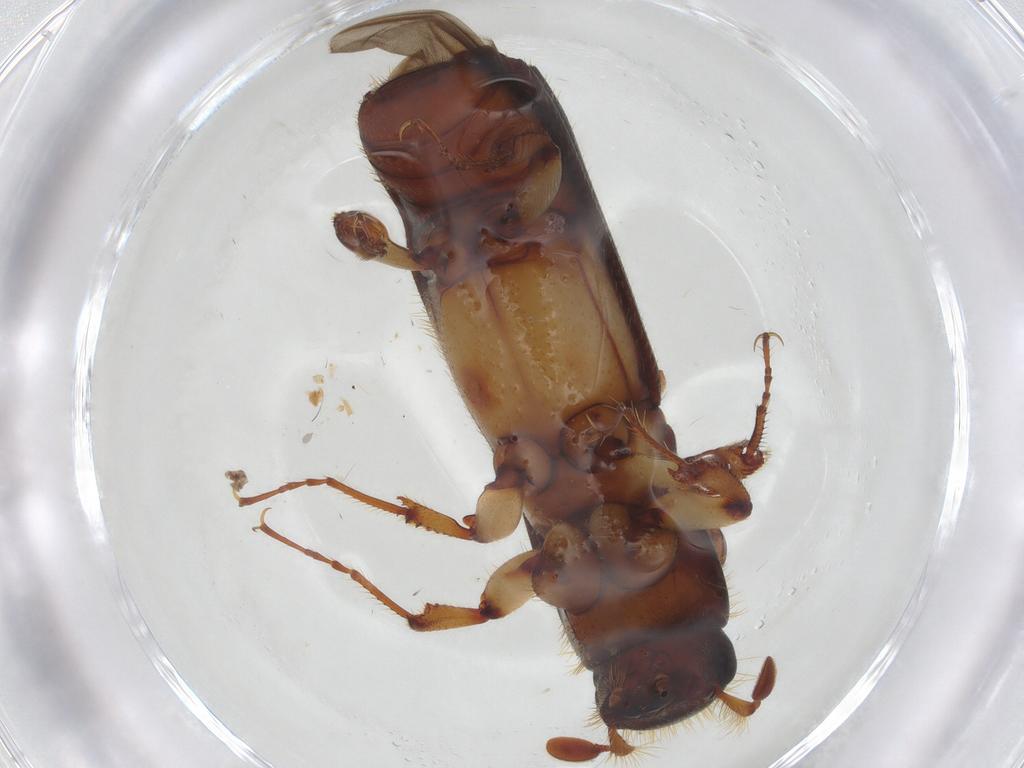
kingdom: Animalia
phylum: Arthropoda
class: Insecta
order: Coleoptera
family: Curculionidae
